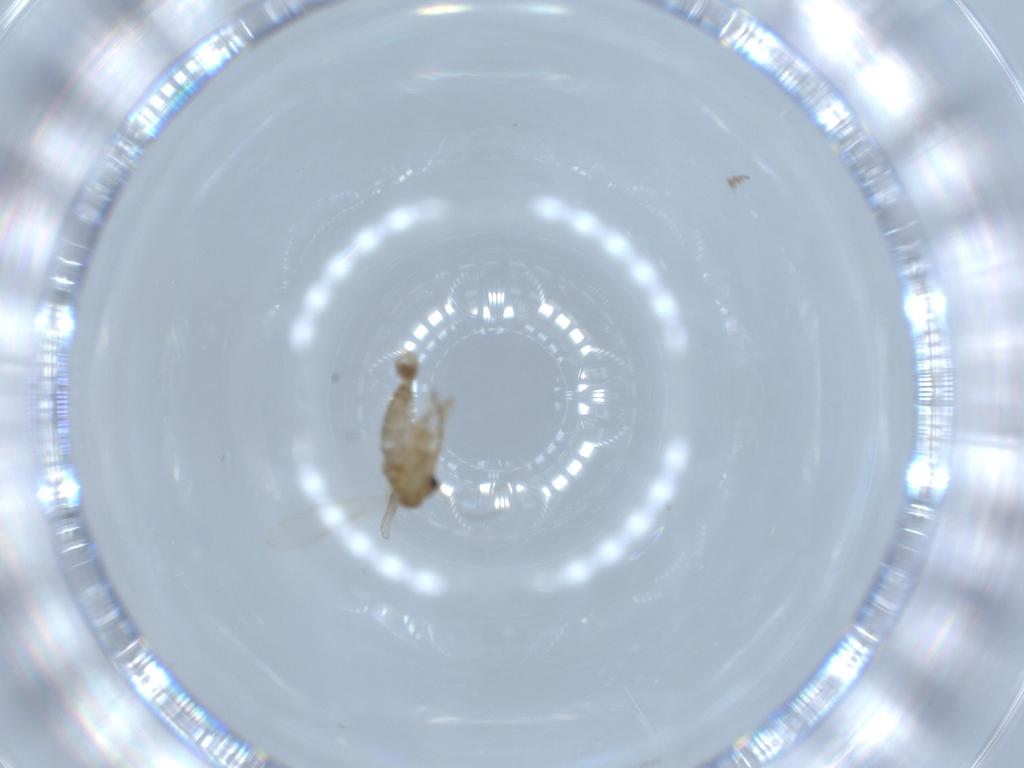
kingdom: Animalia
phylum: Arthropoda
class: Insecta
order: Diptera
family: Psychodidae
